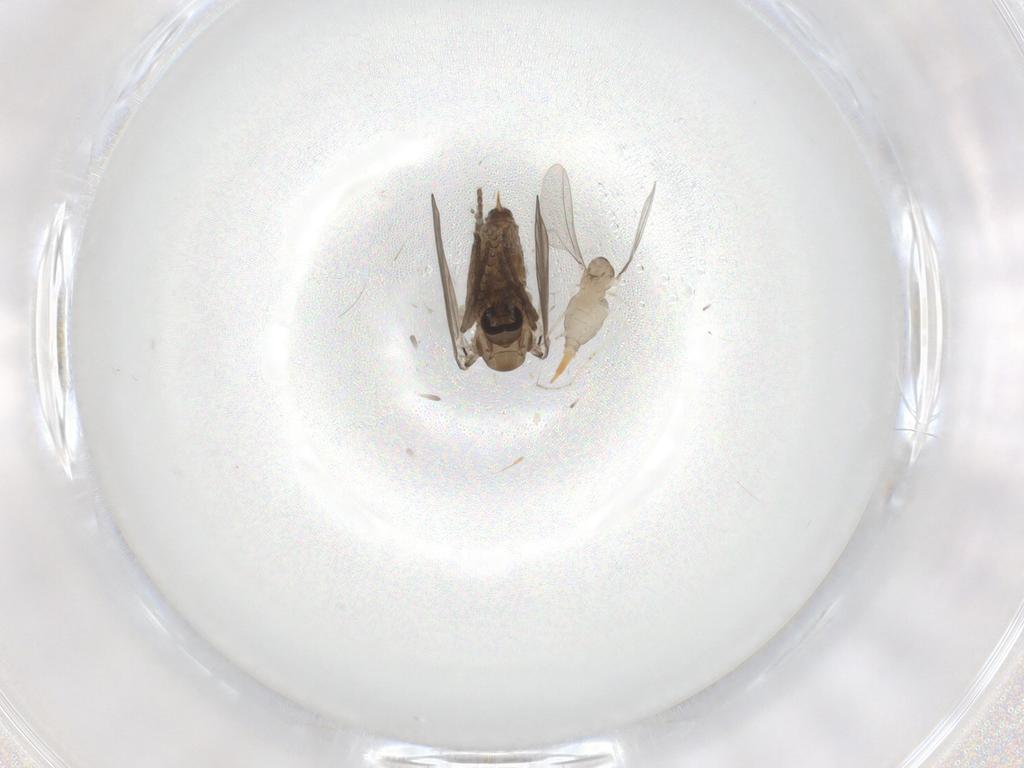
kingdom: Animalia
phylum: Arthropoda
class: Insecta
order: Diptera
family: Cecidomyiidae
